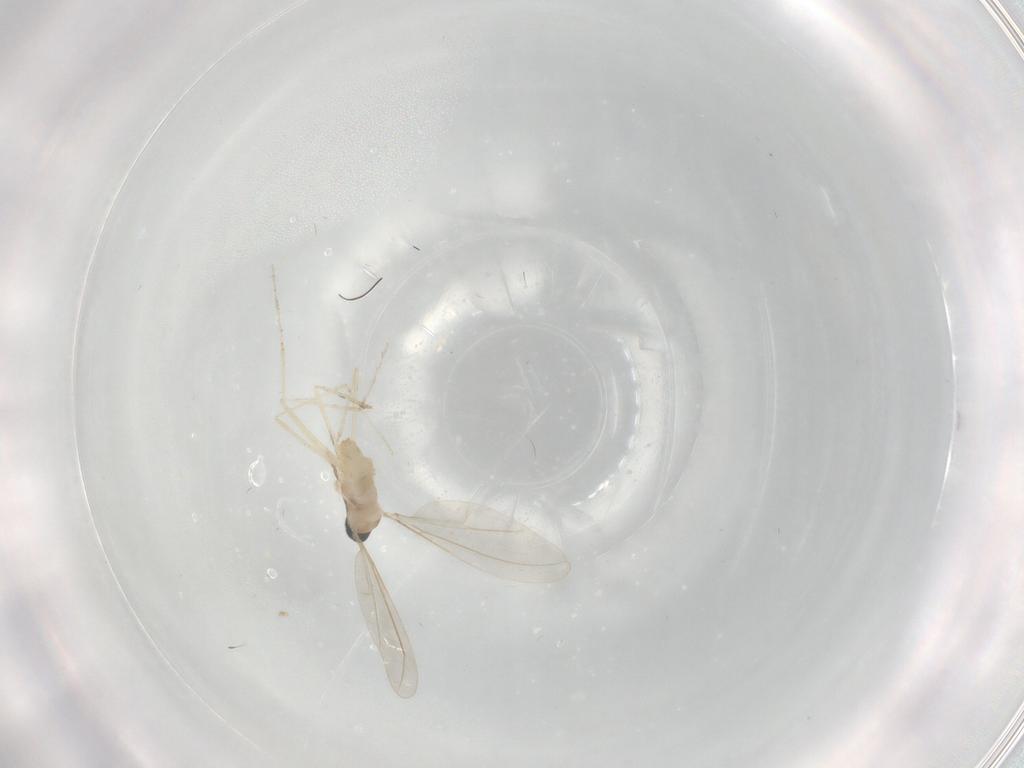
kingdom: Animalia
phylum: Arthropoda
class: Insecta
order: Diptera
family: Cecidomyiidae
